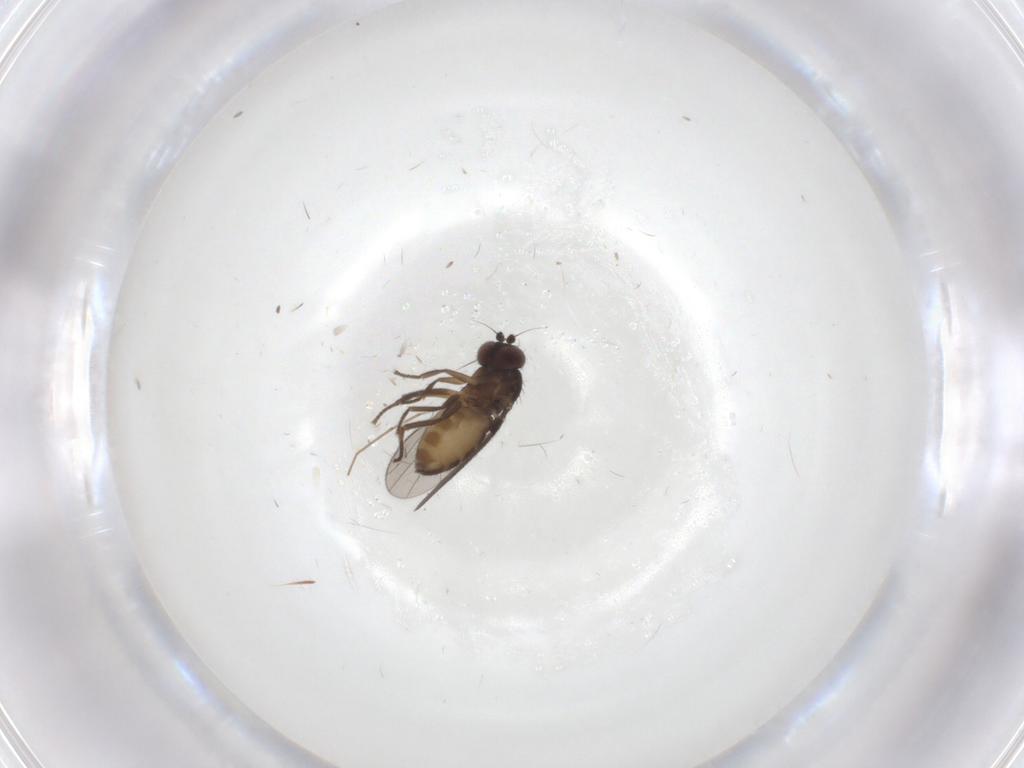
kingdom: Animalia
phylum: Arthropoda
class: Insecta
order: Diptera
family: Dolichopodidae
